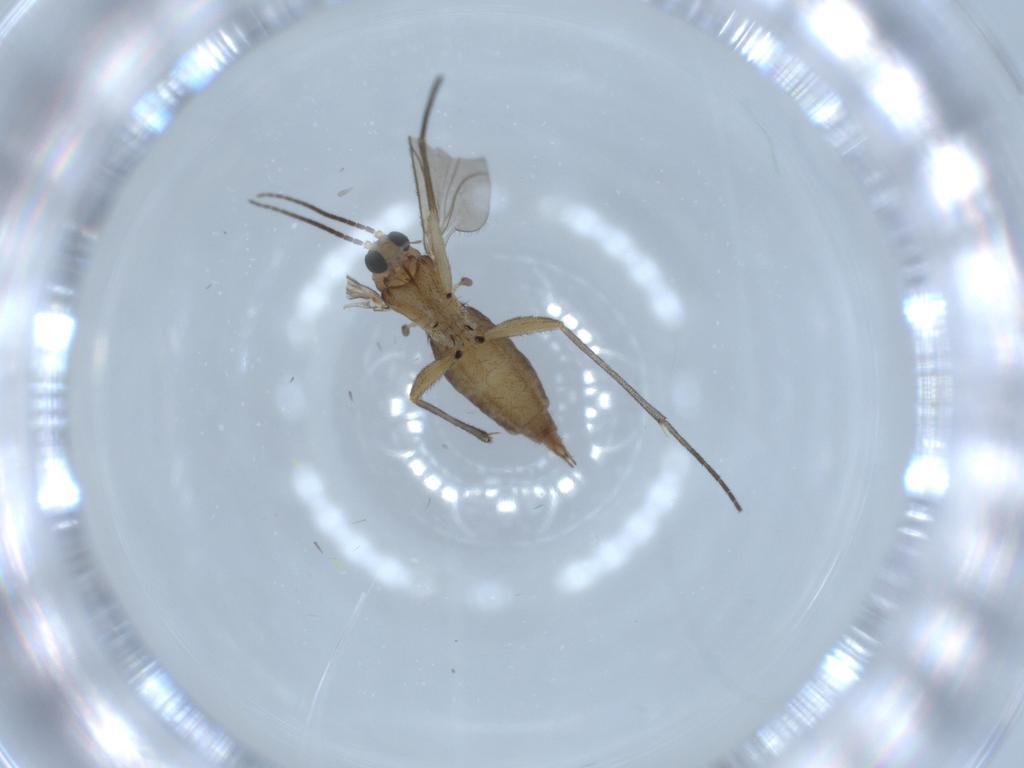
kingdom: Animalia
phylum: Arthropoda
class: Insecta
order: Diptera
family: Sciaridae
